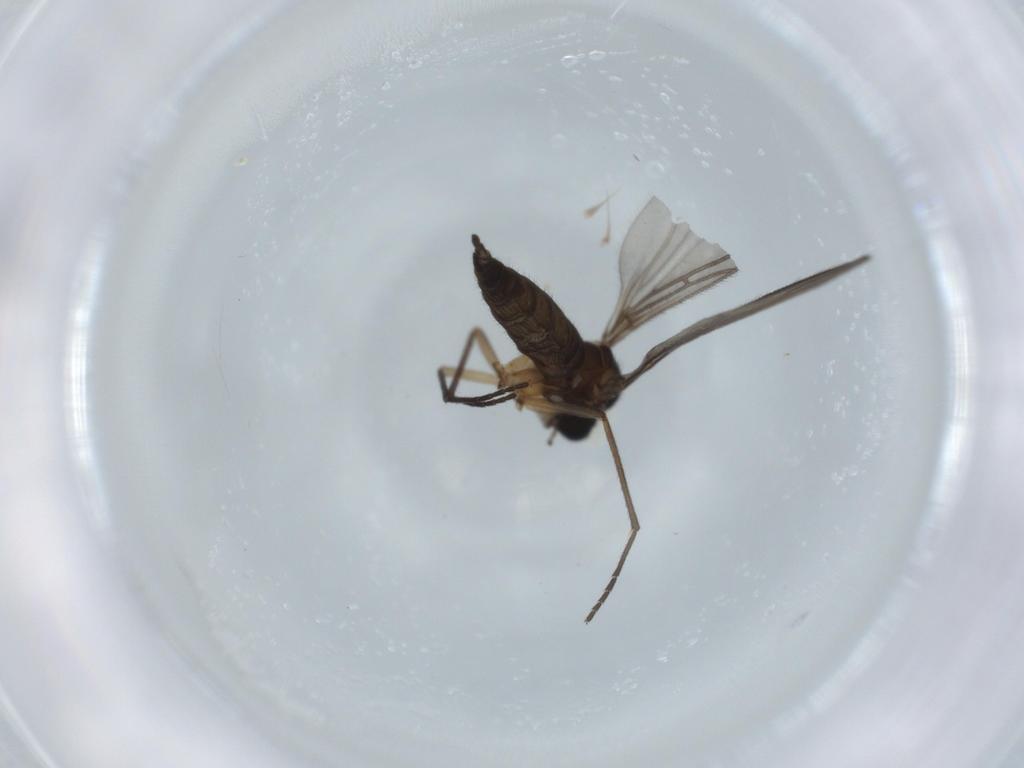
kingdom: Animalia
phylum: Arthropoda
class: Insecta
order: Diptera
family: Sciaridae
